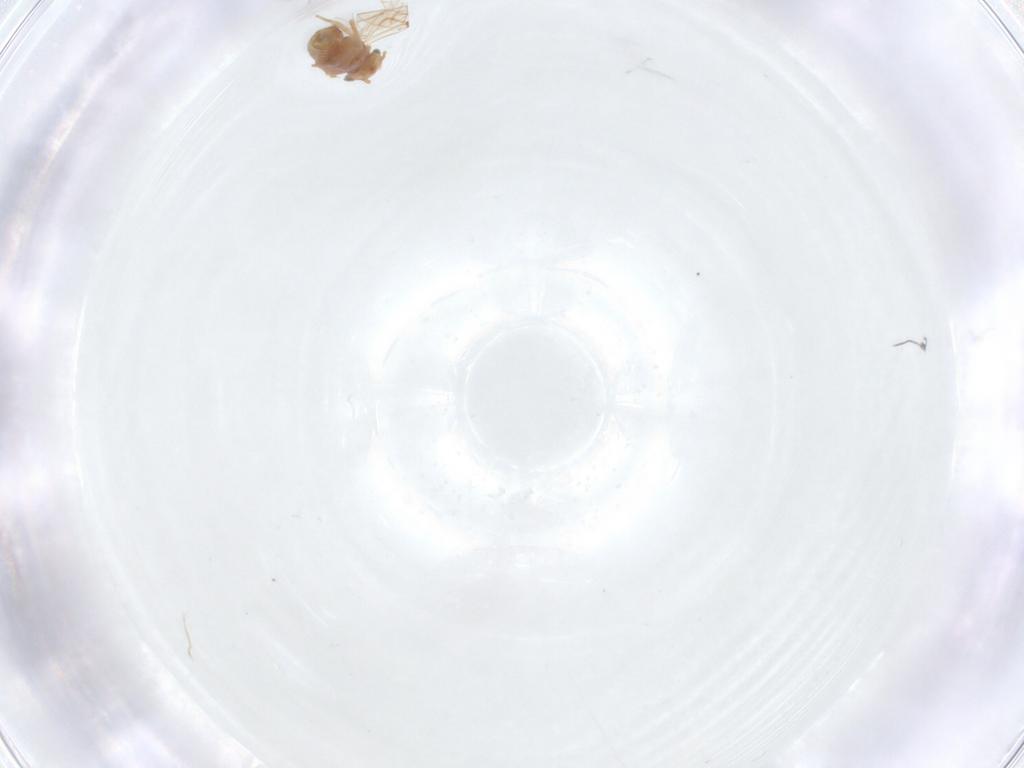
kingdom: Animalia
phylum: Arthropoda
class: Insecta
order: Psocodea
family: Lachesillidae
